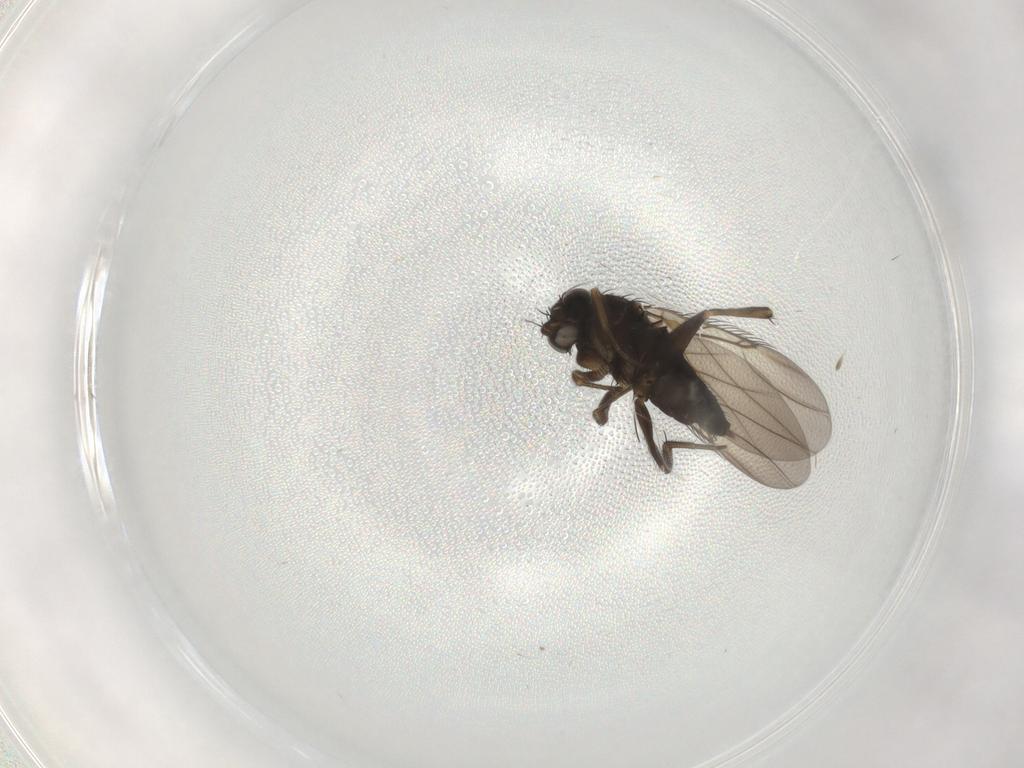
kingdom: Animalia
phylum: Arthropoda
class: Insecta
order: Diptera
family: Phoridae
